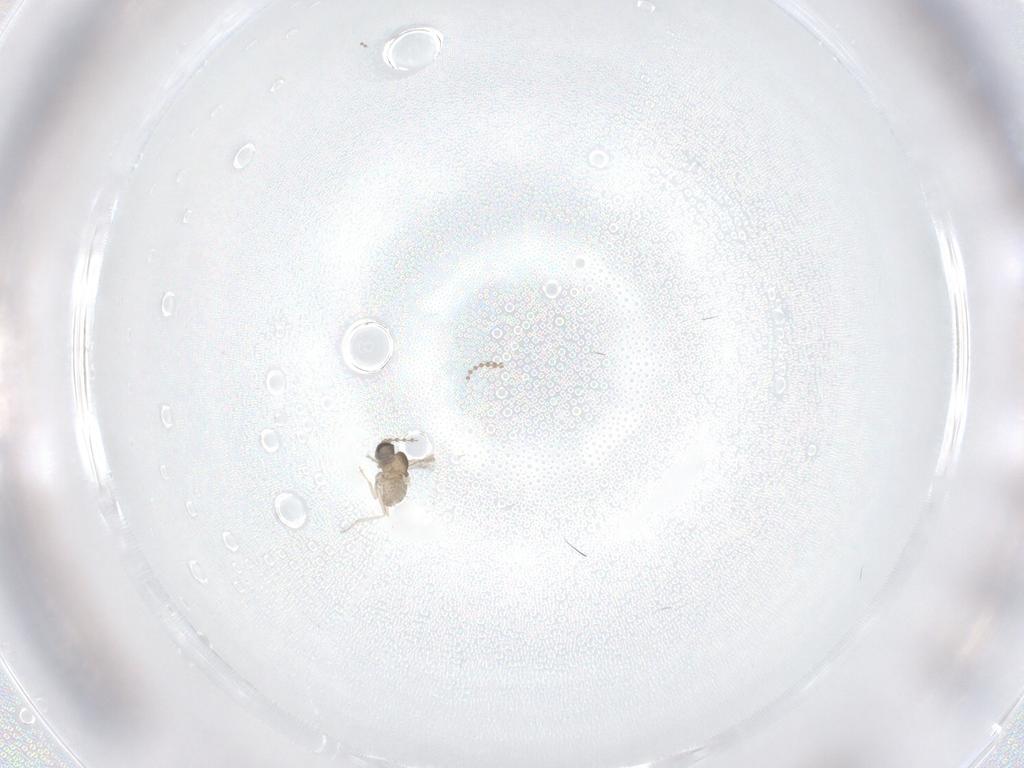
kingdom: Animalia
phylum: Arthropoda
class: Insecta
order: Diptera
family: Psychodidae
